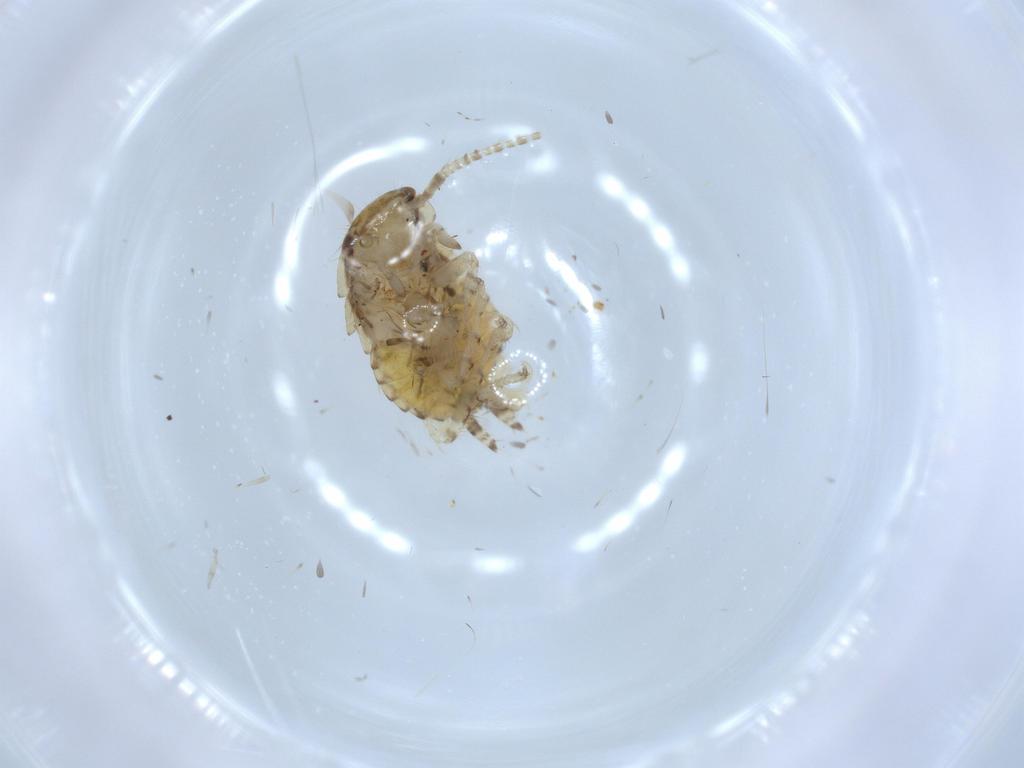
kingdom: Animalia
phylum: Arthropoda
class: Insecta
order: Blattodea
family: Ectobiidae
